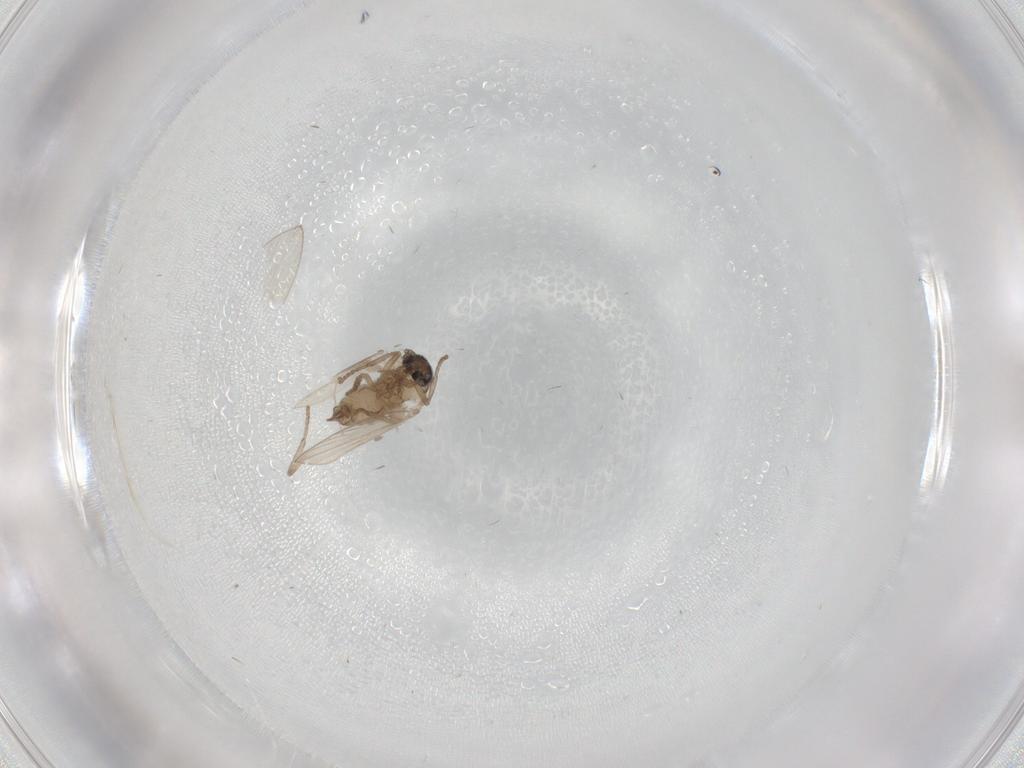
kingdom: Animalia
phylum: Arthropoda
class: Insecta
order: Diptera
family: Psychodidae
